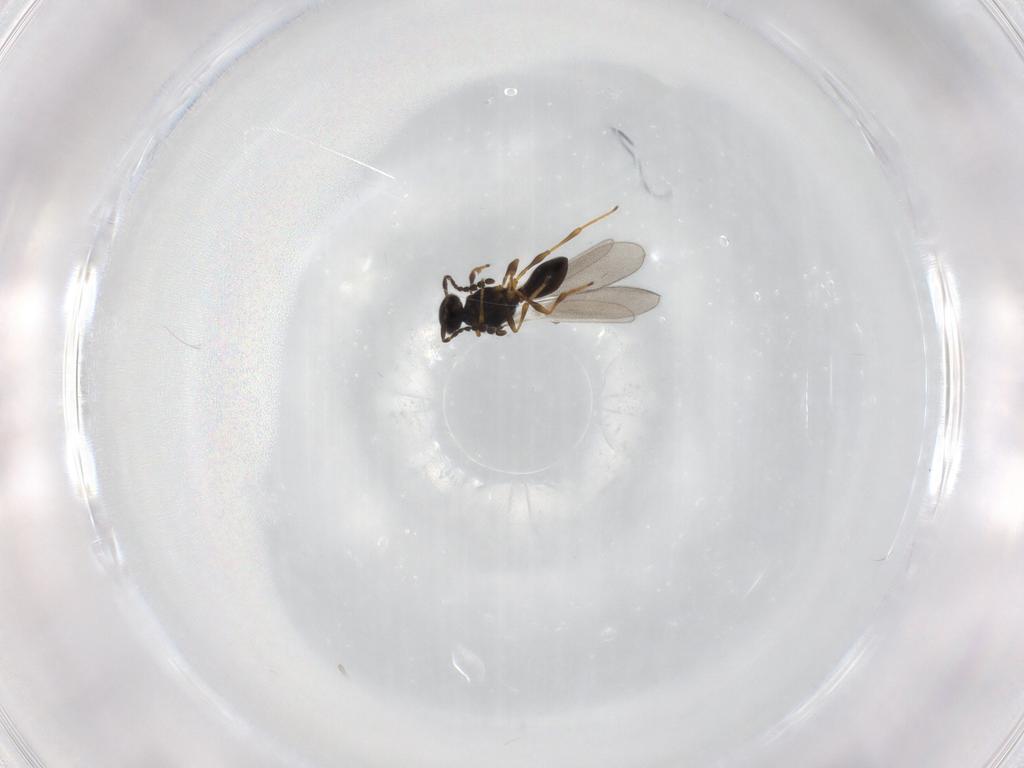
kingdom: Animalia
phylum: Arthropoda
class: Insecta
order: Hymenoptera
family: Platygastridae
